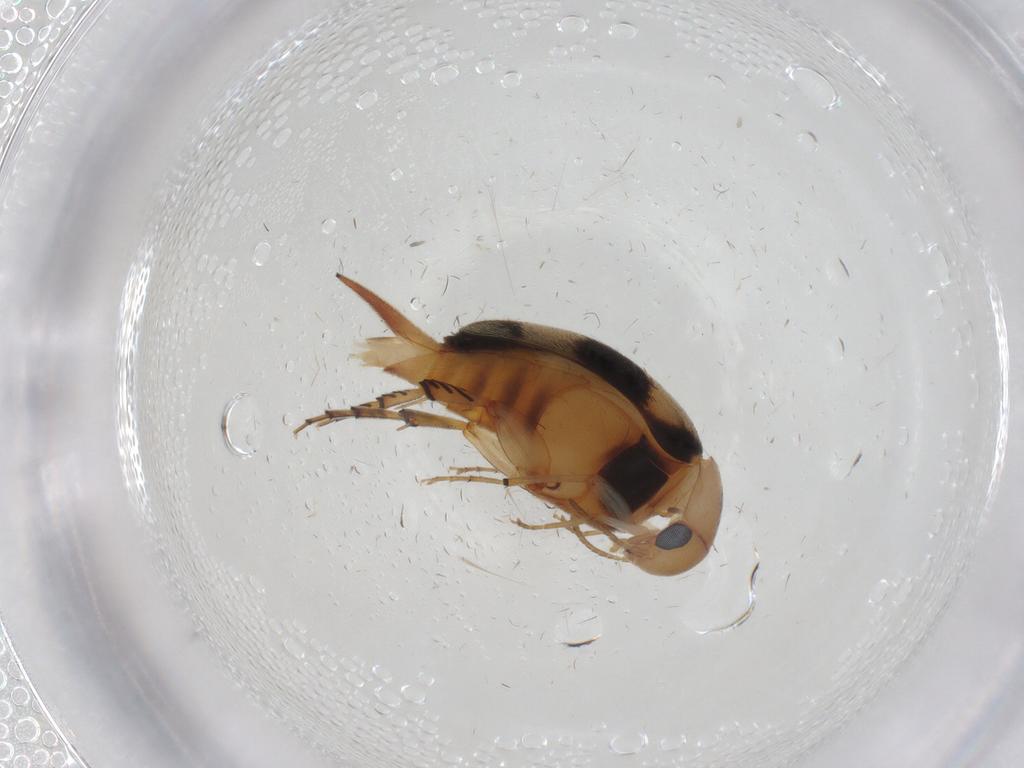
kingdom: Animalia
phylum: Arthropoda
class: Insecta
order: Coleoptera
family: Mordellidae
